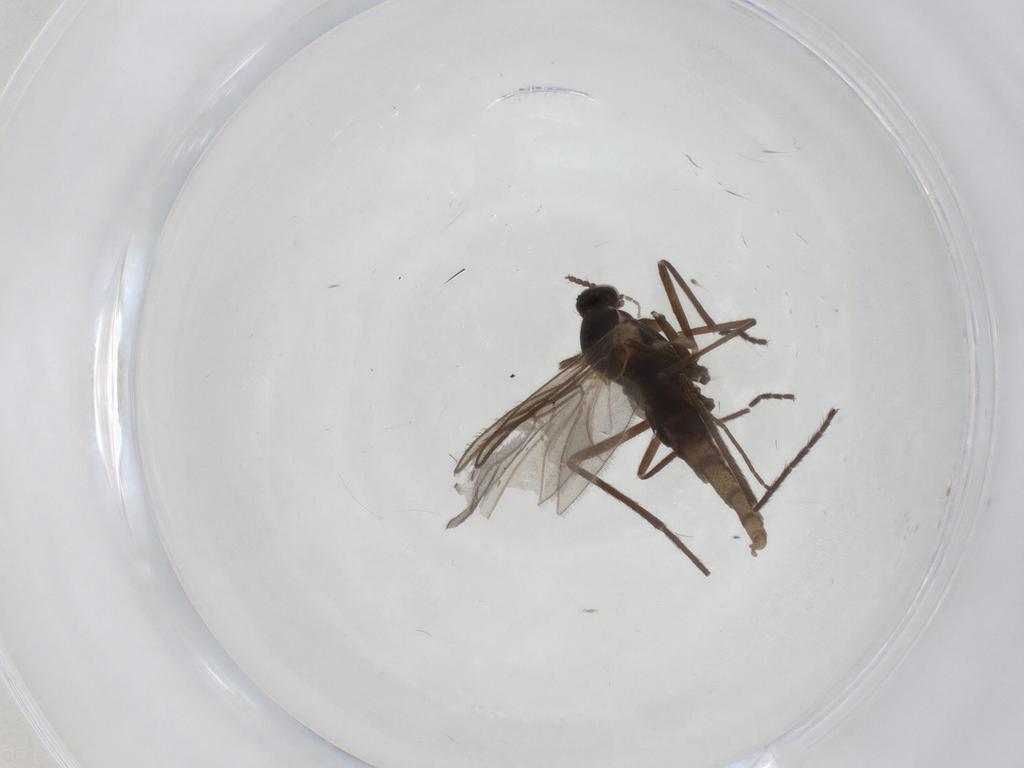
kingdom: Animalia
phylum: Arthropoda
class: Insecta
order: Diptera
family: Cecidomyiidae
